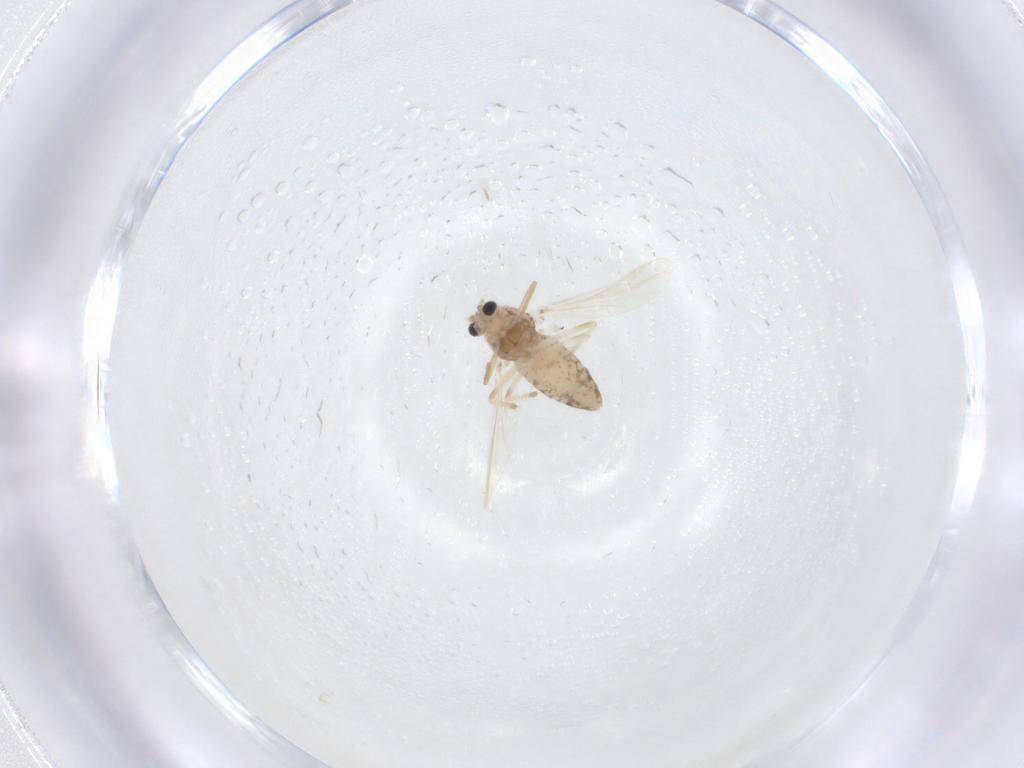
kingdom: Animalia
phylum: Arthropoda
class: Insecta
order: Diptera
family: Chironomidae
